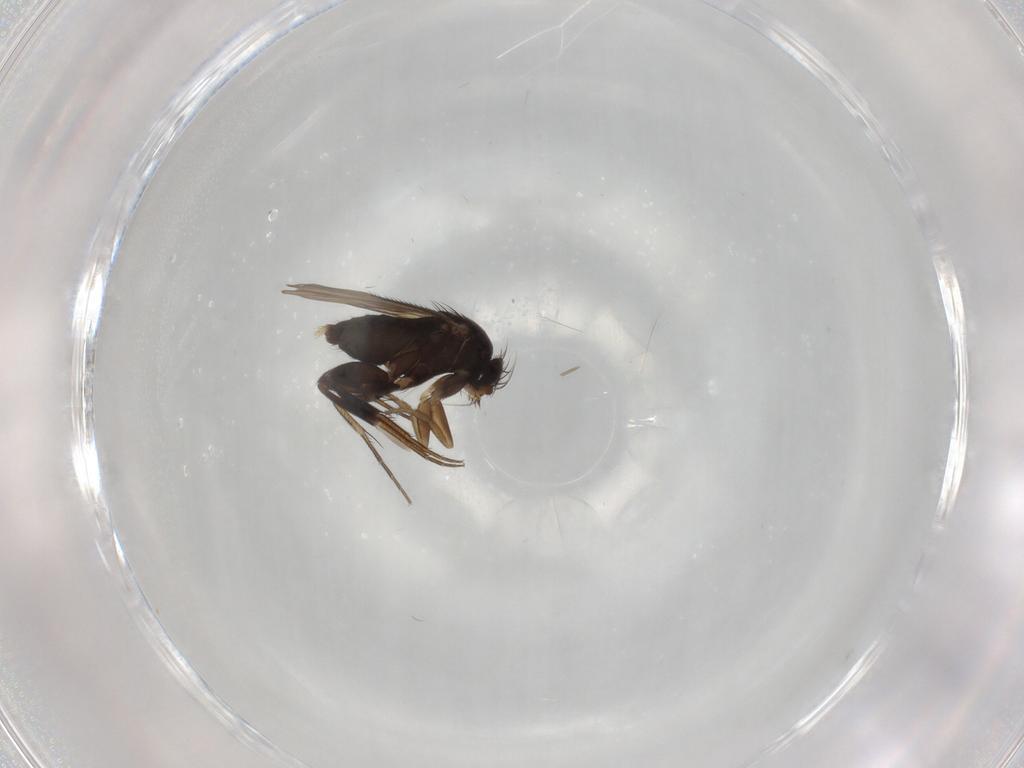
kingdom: Animalia
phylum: Arthropoda
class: Insecta
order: Diptera
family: Phoridae
